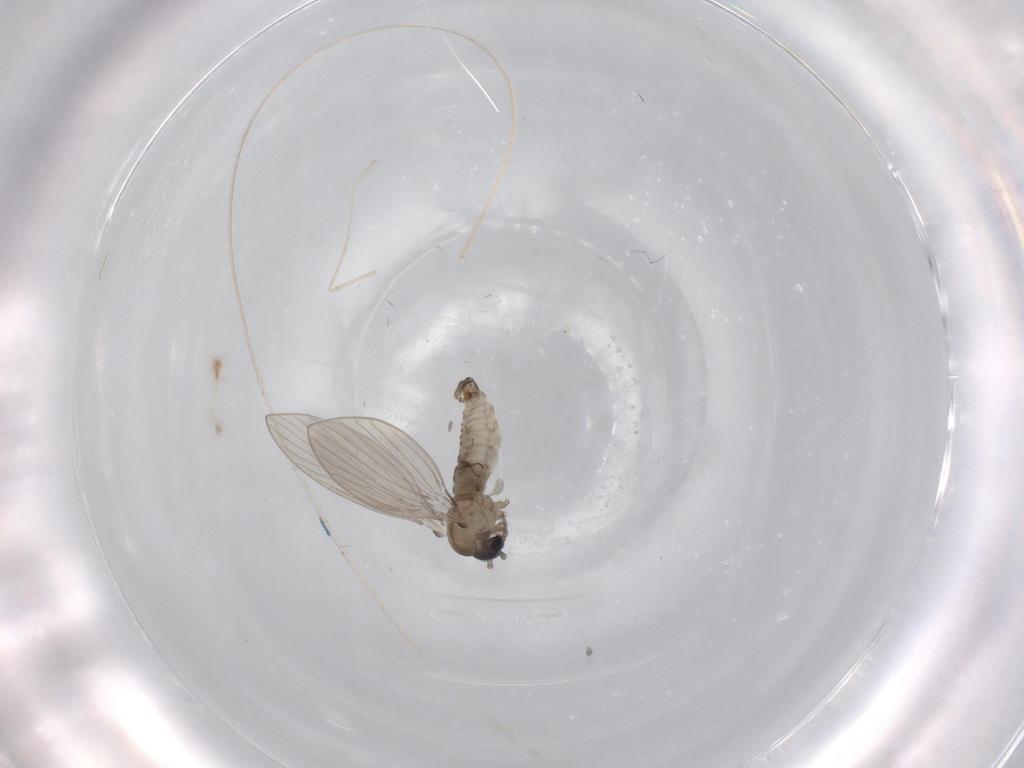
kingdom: Animalia
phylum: Arthropoda
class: Insecta
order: Diptera
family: Psychodidae
